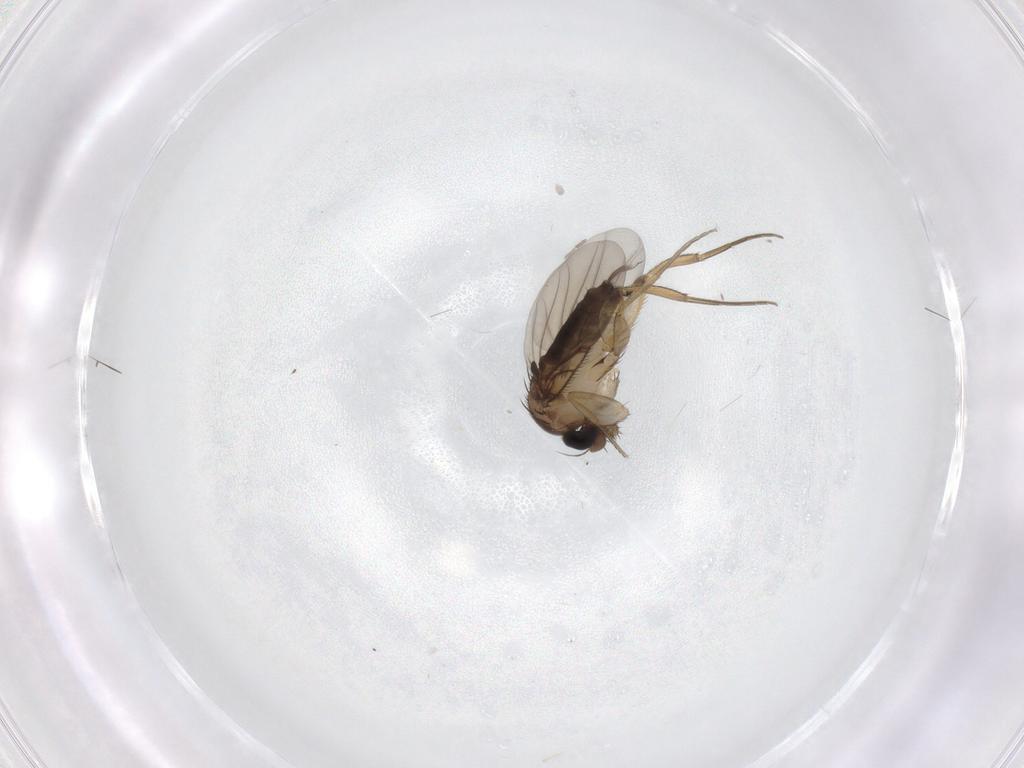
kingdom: Animalia
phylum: Arthropoda
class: Insecta
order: Diptera
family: Phoridae
